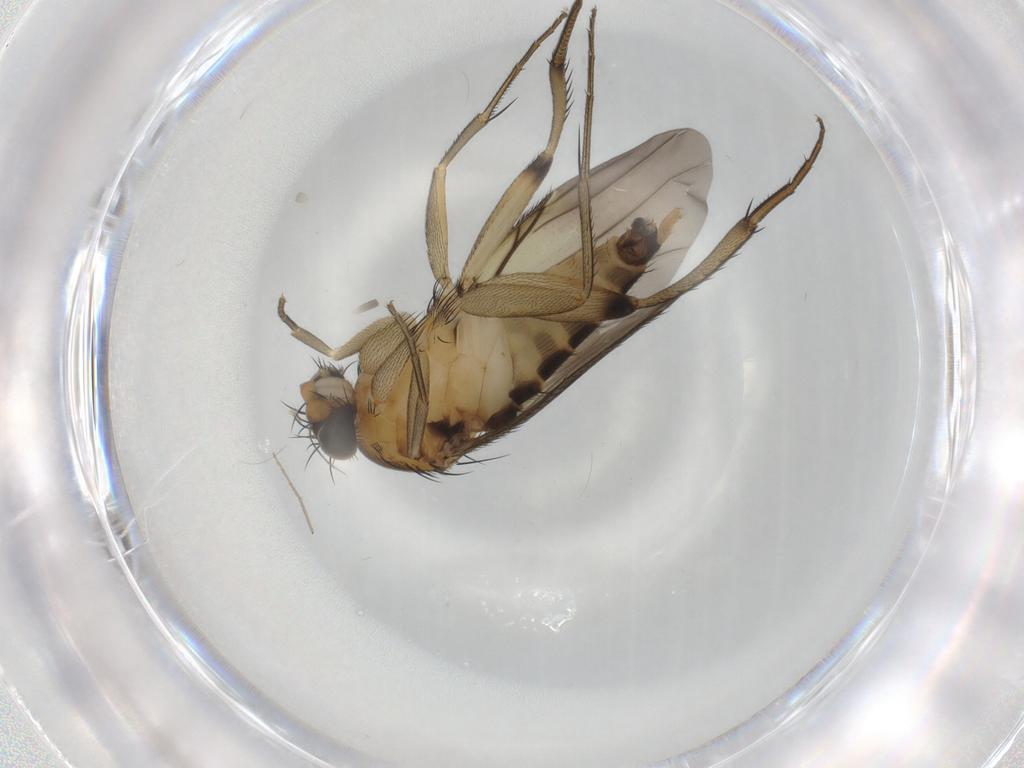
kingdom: Animalia
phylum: Arthropoda
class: Insecta
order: Diptera
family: Phoridae
